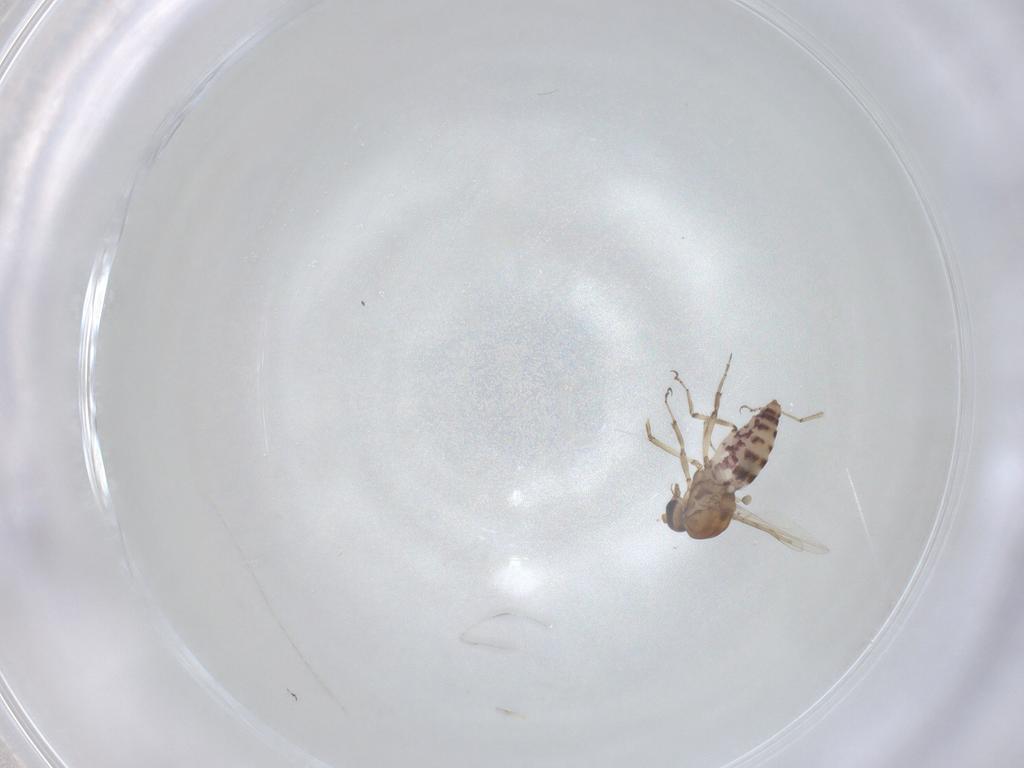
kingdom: Animalia
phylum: Arthropoda
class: Insecta
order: Diptera
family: Ceratopogonidae
